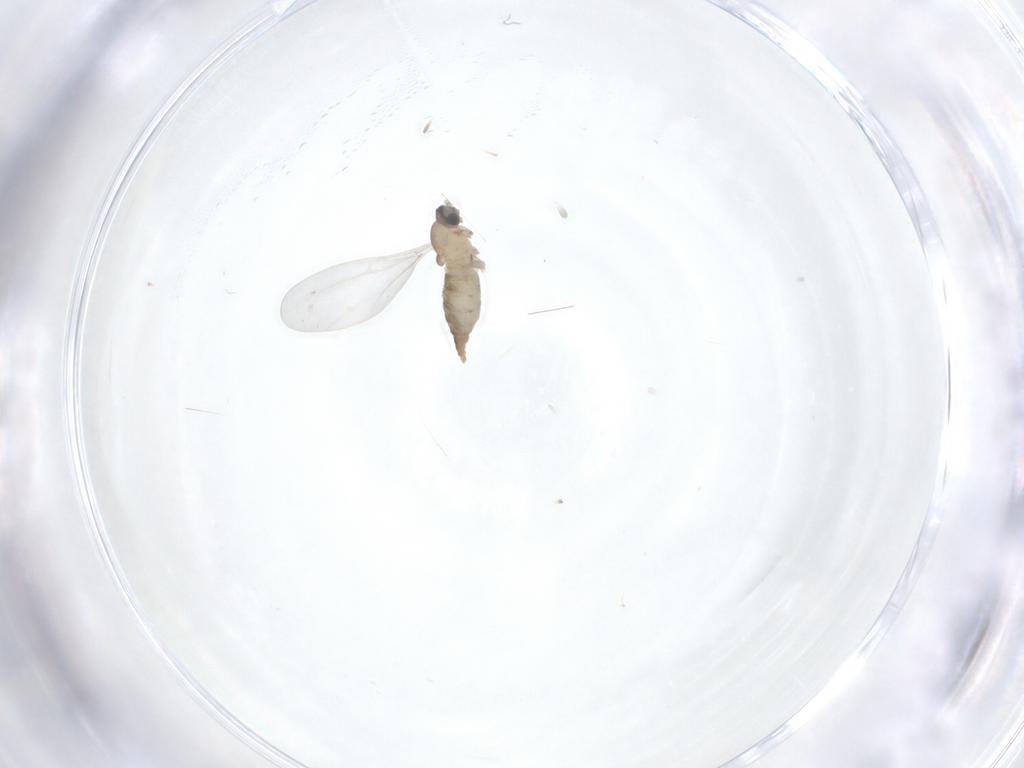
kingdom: Animalia
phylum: Arthropoda
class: Insecta
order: Diptera
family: Cecidomyiidae
